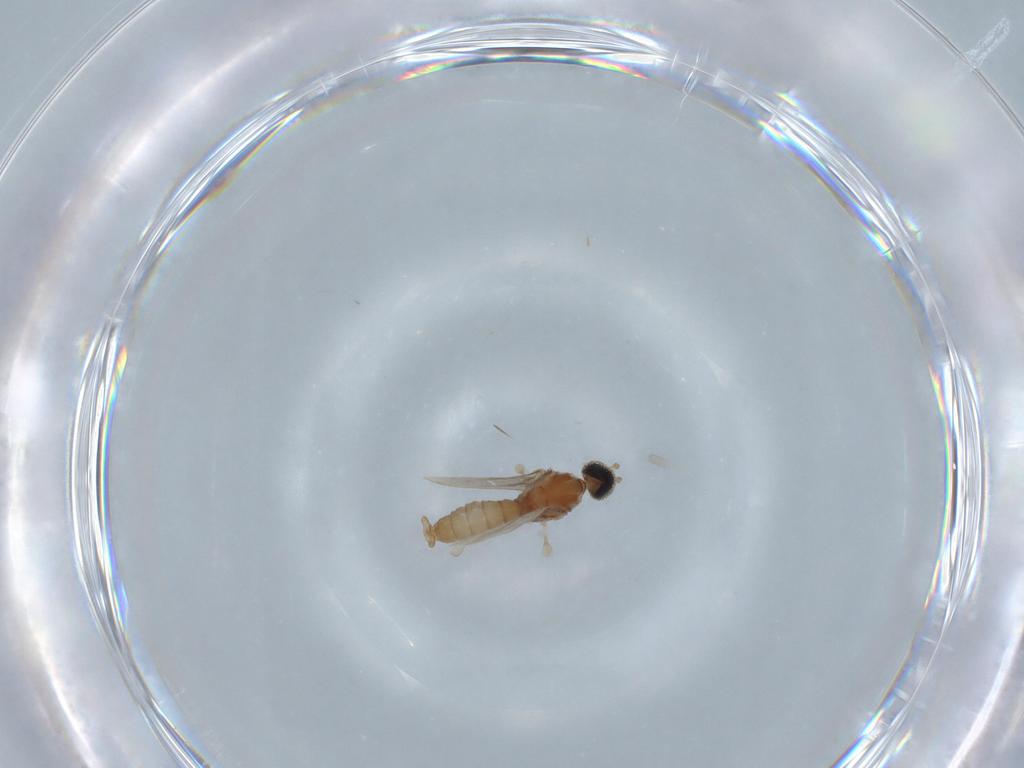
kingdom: Animalia
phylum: Arthropoda
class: Insecta
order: Diptera
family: Cecidomyiidae
